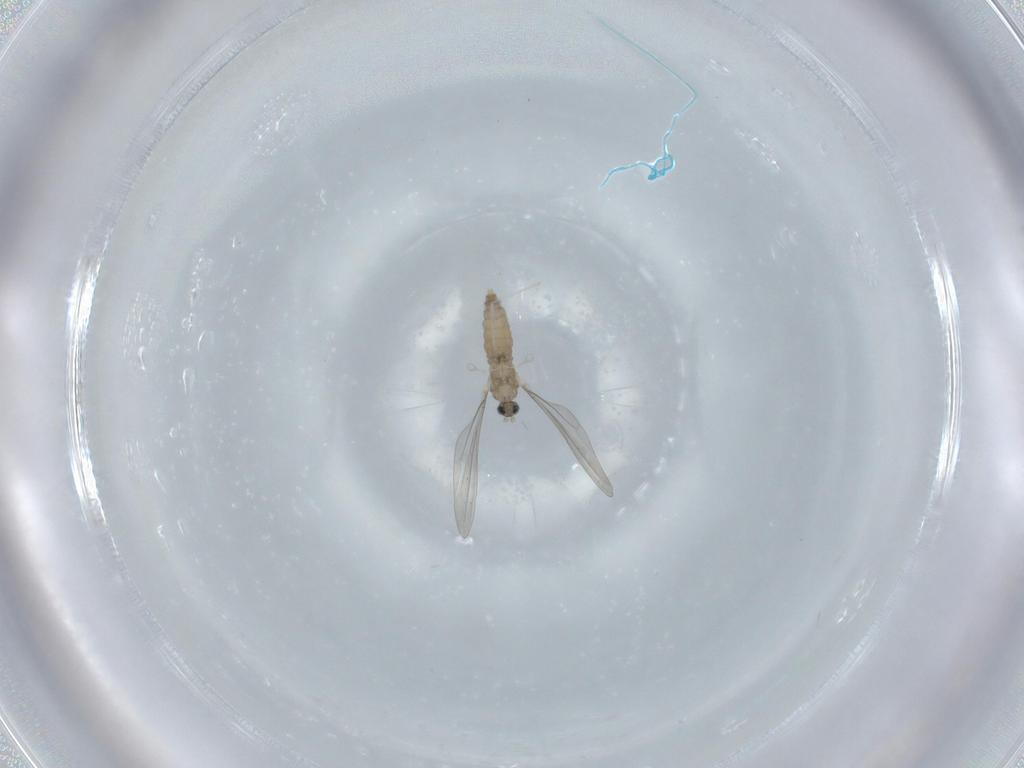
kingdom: Animalia
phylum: Arthropoda
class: Insecta
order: Diptera
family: Cecidomyiidae
